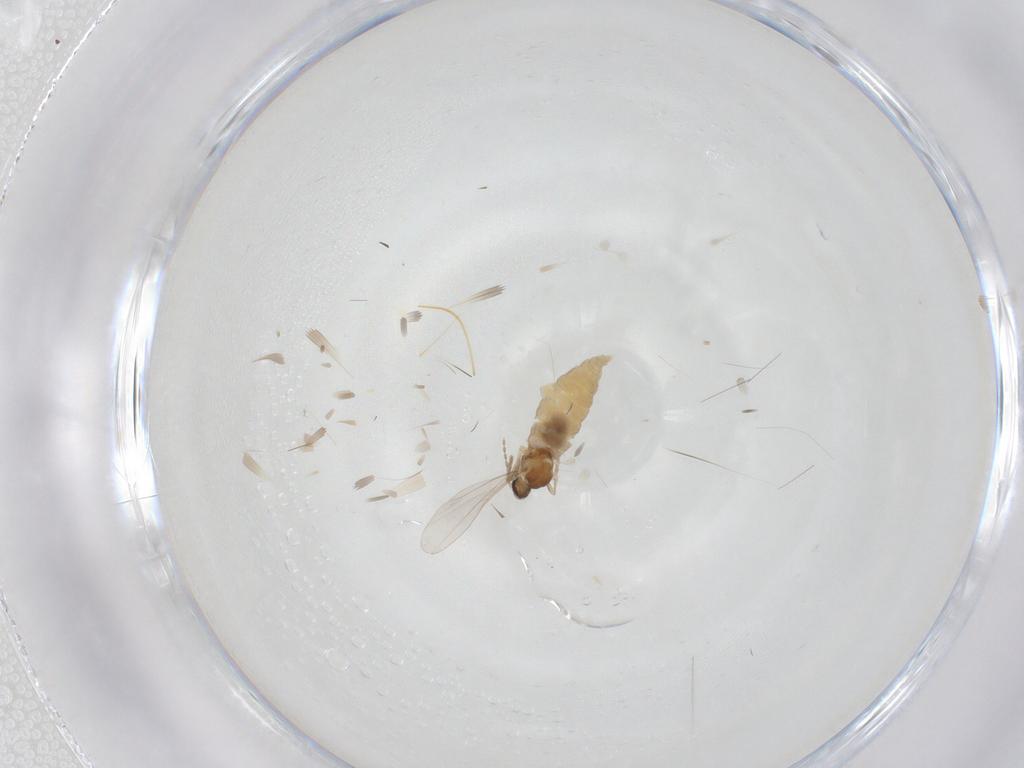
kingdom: Animalia
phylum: Arthropoda
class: Insecta
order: Diptera
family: Cecidomyiidae
